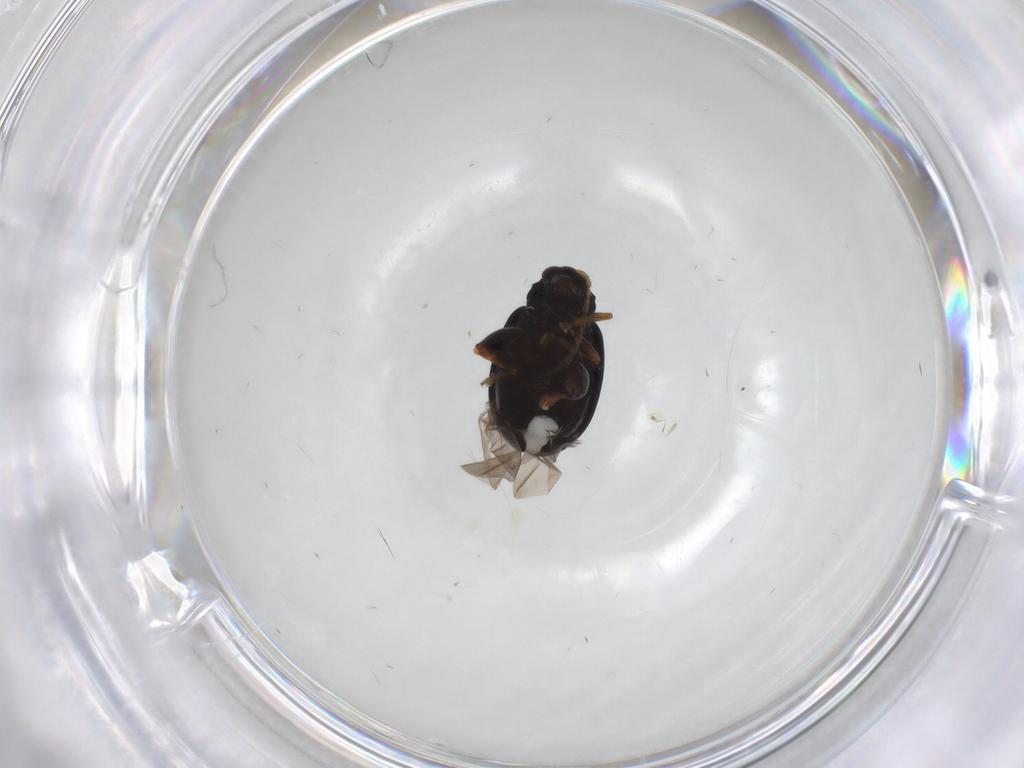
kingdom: Animalia
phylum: Arthropoda
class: Insecta
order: Coleoptera
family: Chrysomelidae
